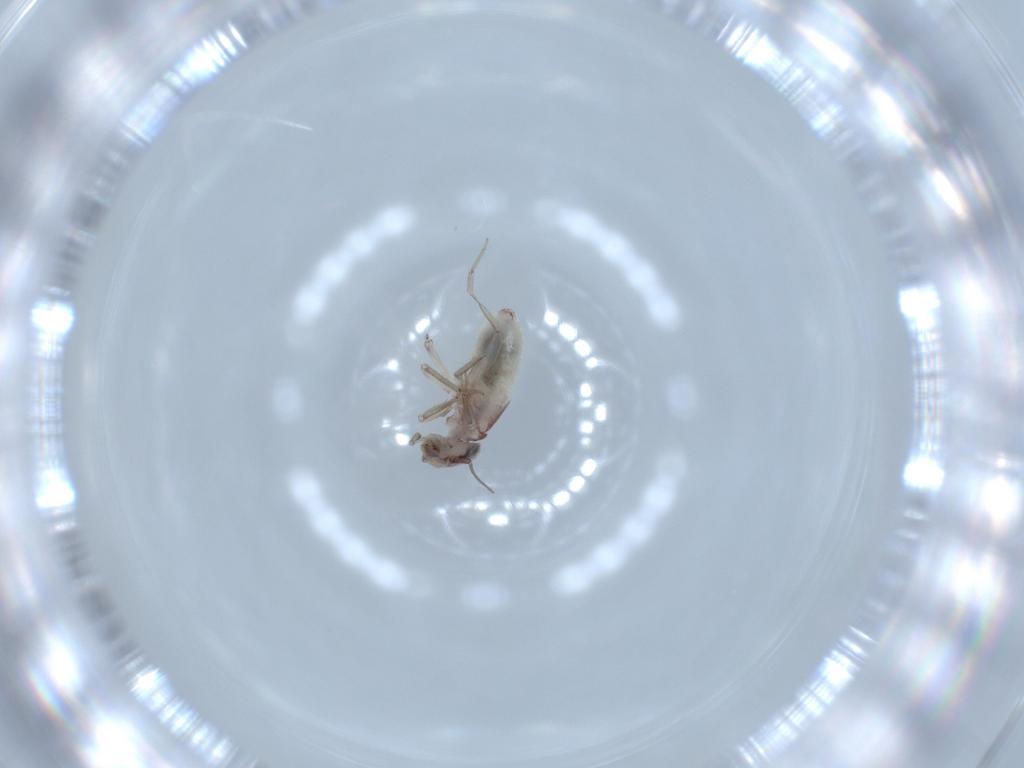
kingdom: Animalia
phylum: Arthropoda
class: Insecta
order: Psocodea
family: Lepidopsocidae
